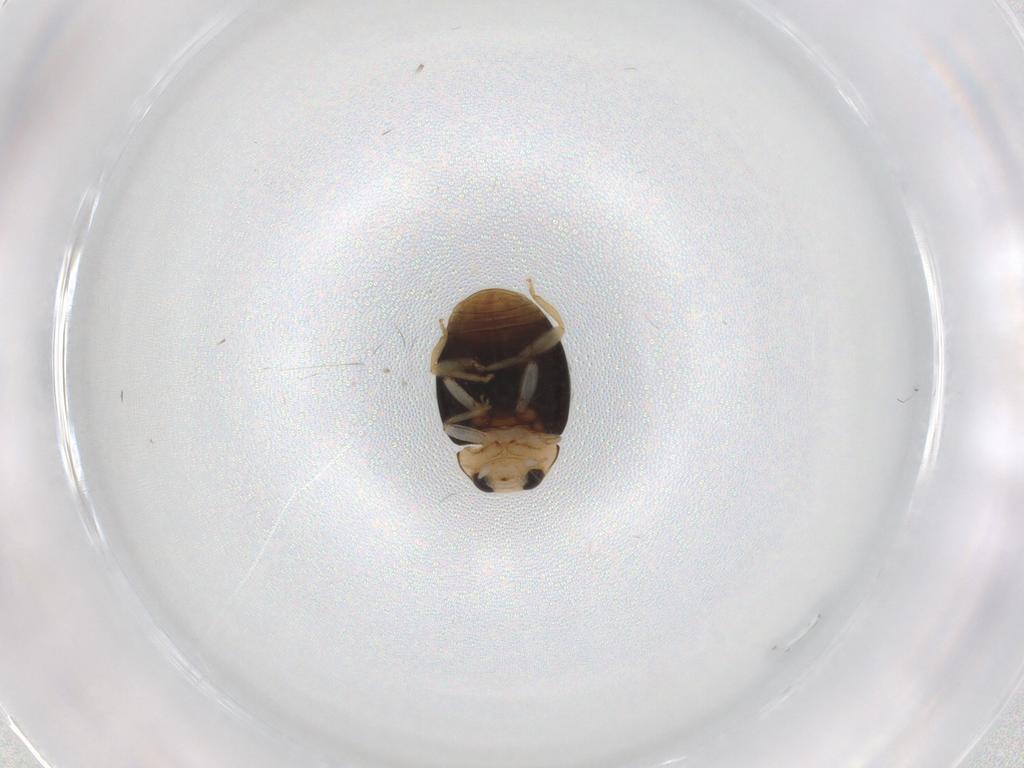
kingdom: Animalia
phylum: Arthropoda
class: Insecta
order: Coleoptera
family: Coccinellidae
